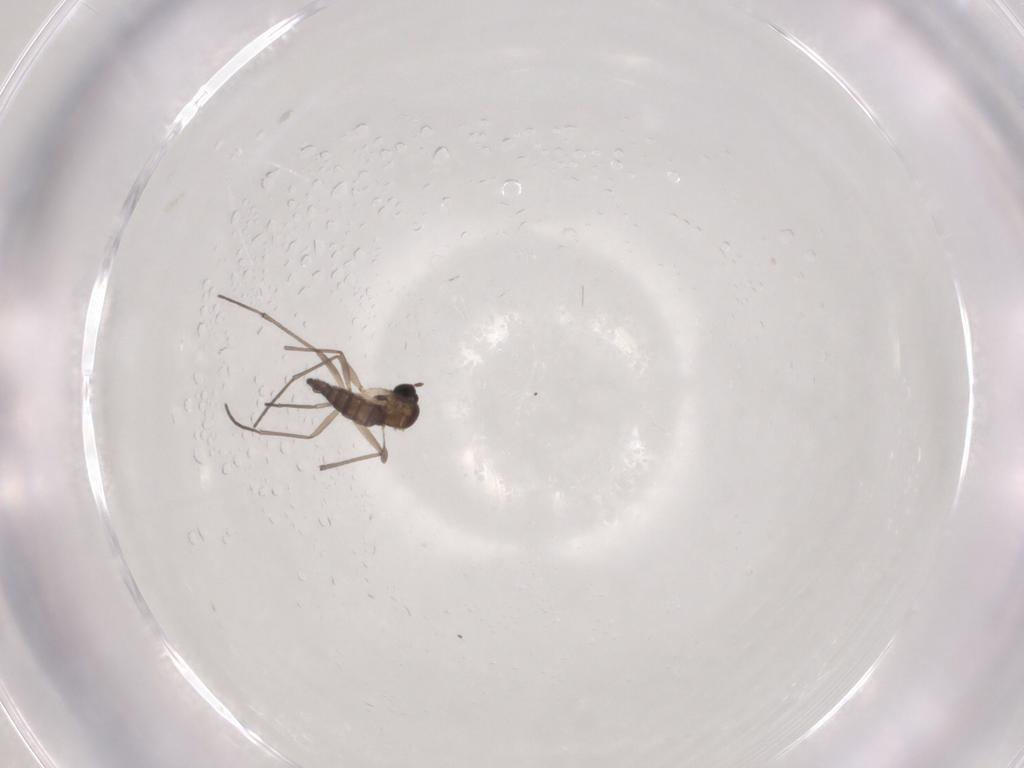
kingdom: Animalia
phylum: Arthropoda
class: Insecta
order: Diptera
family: Sciaridae
